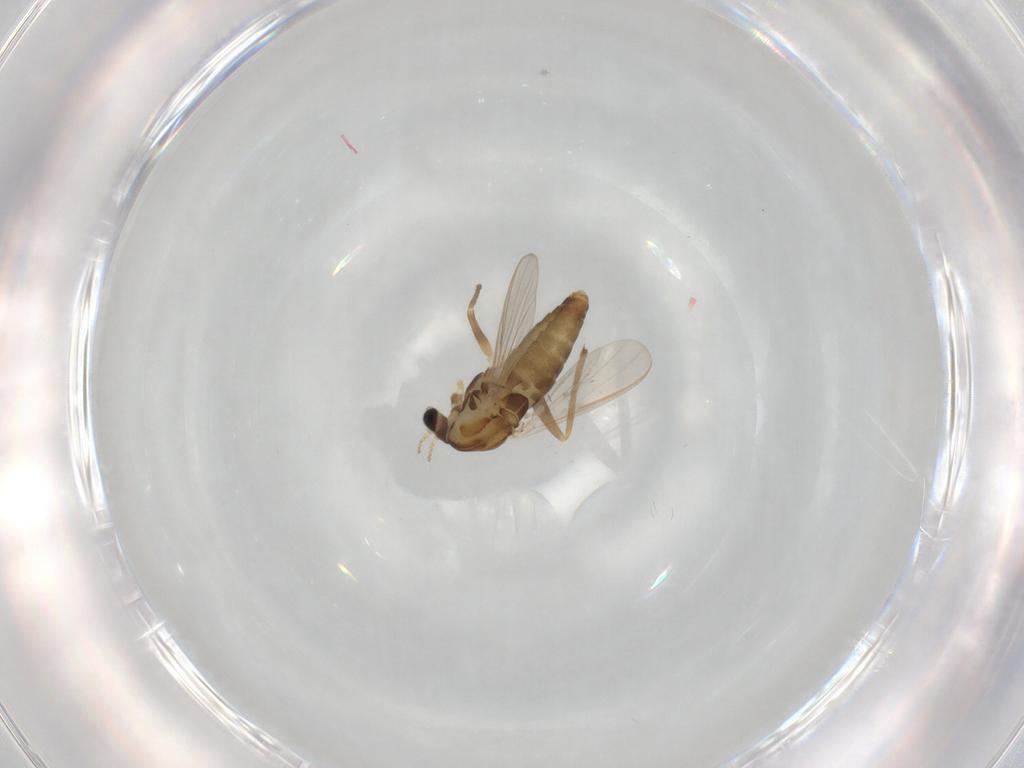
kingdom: Animalia
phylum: Arthropoda
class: Insecta
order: Diptera
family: Chironomidae
